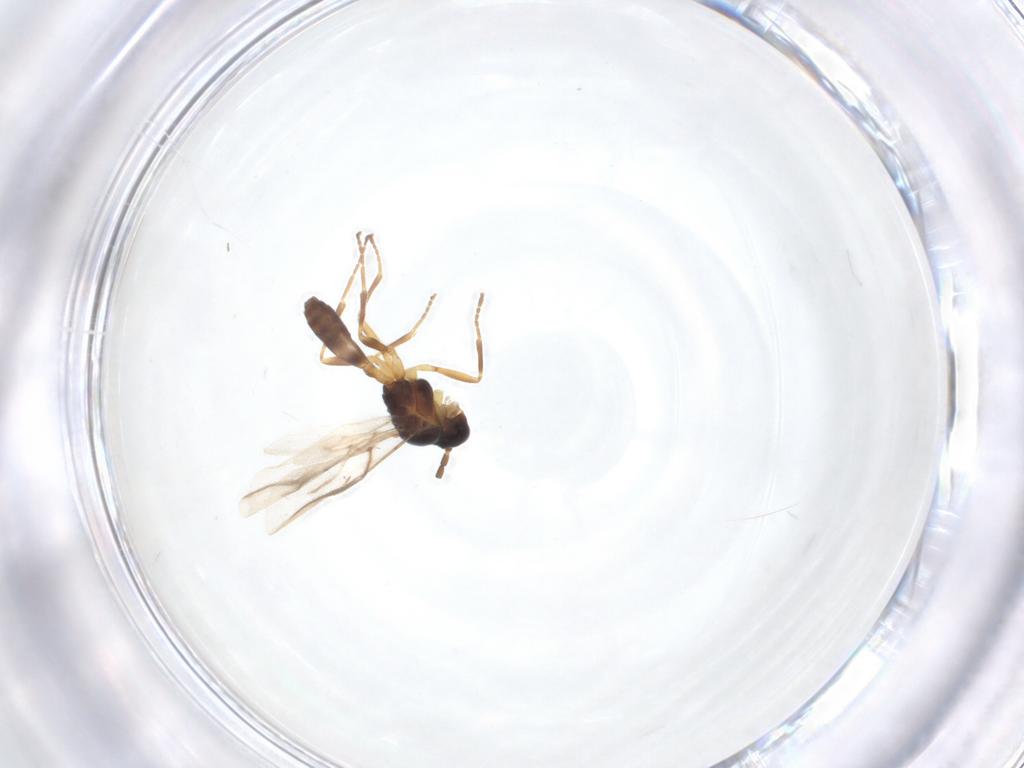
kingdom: Animalia
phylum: Arthropoda
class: Insecta
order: Hymenoptera
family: Braconidae
